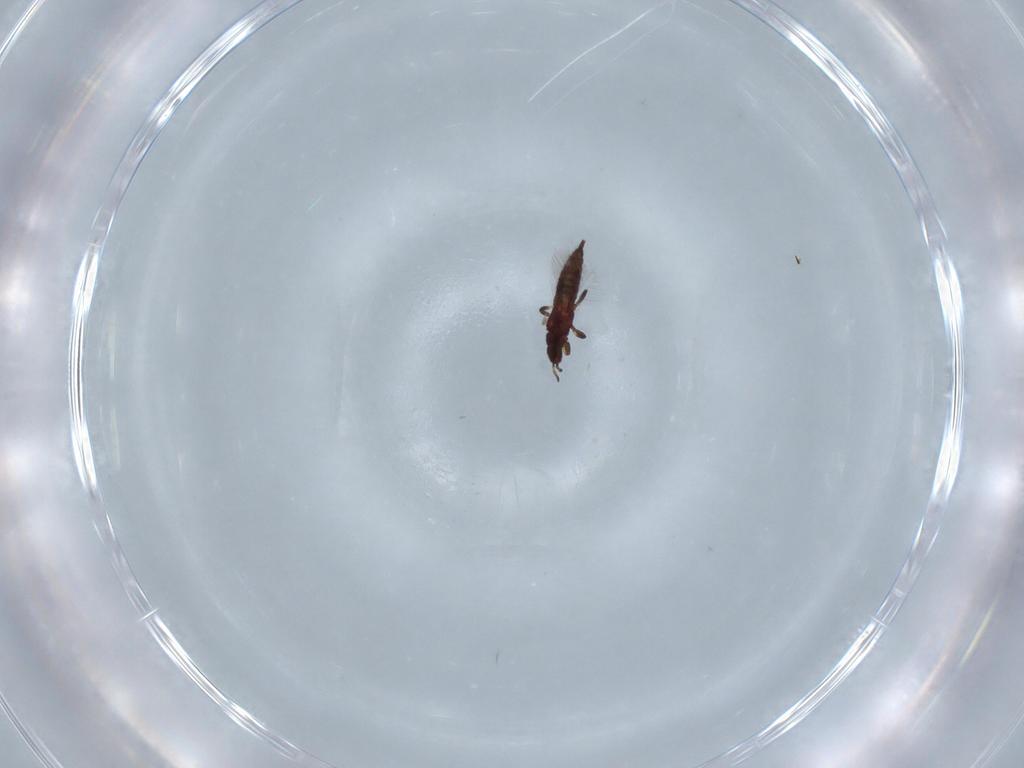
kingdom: Animalia
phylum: Arthropoda
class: Insecta
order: Thysanoptera
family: Phlaeothripidae
